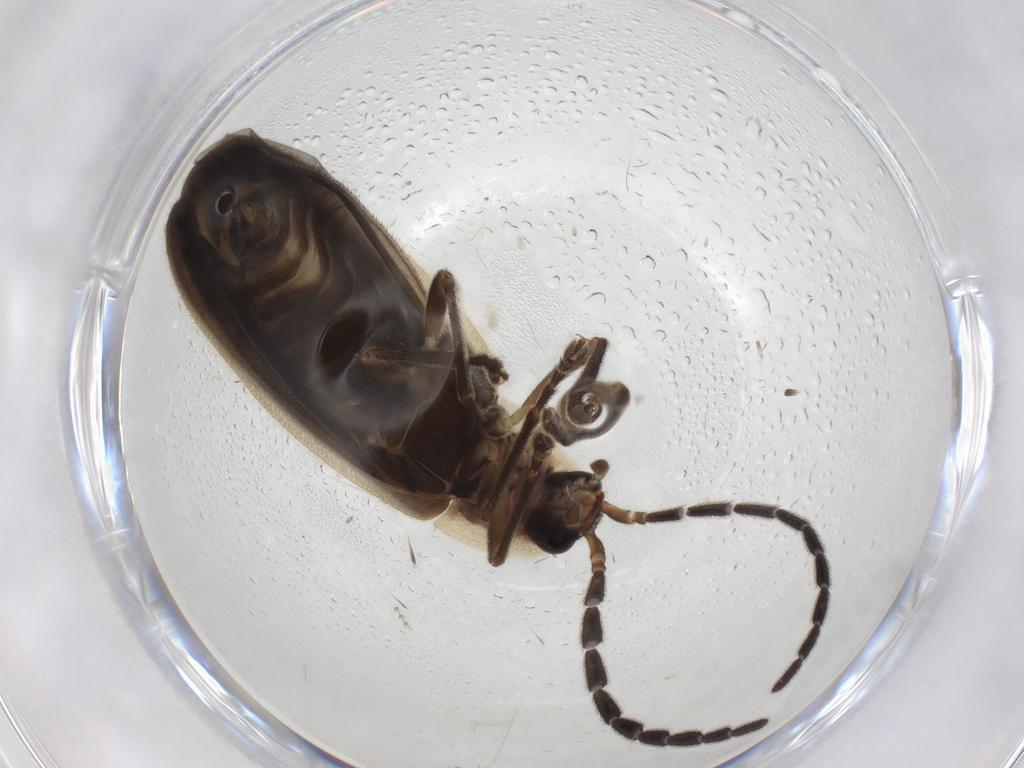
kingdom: Animalia
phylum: Arthropoda
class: Insecta
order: Coleoptera
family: Lampyridae
